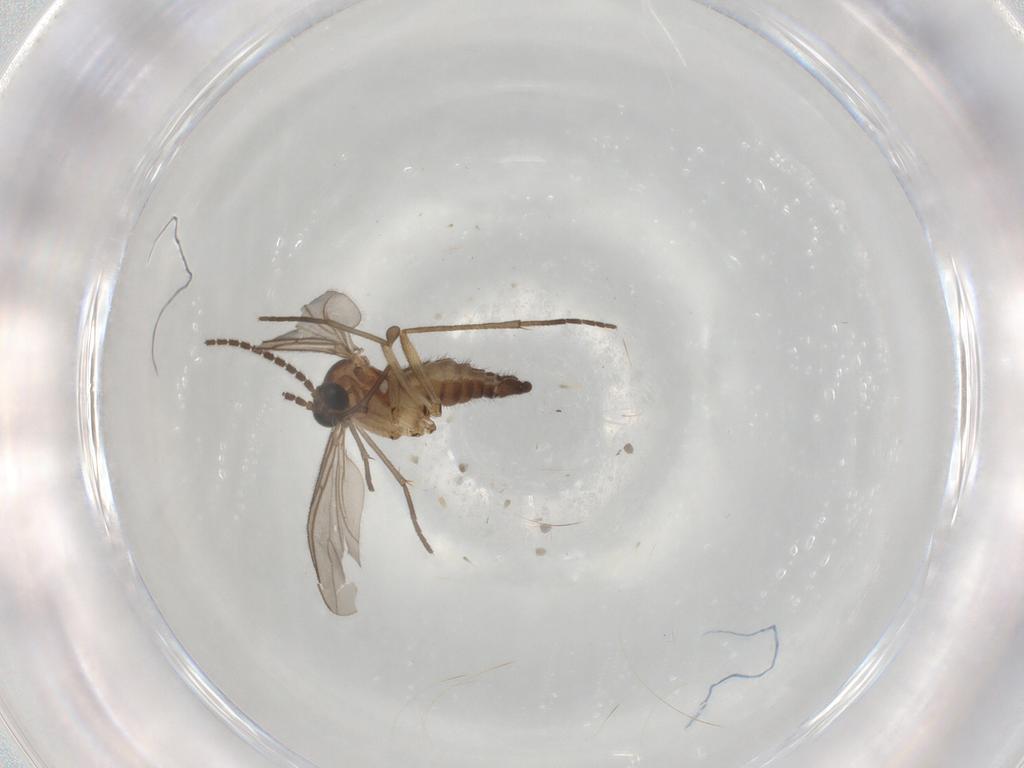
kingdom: Animalia
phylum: Arthropoda
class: Insecta
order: Diptera
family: Sciaridae
